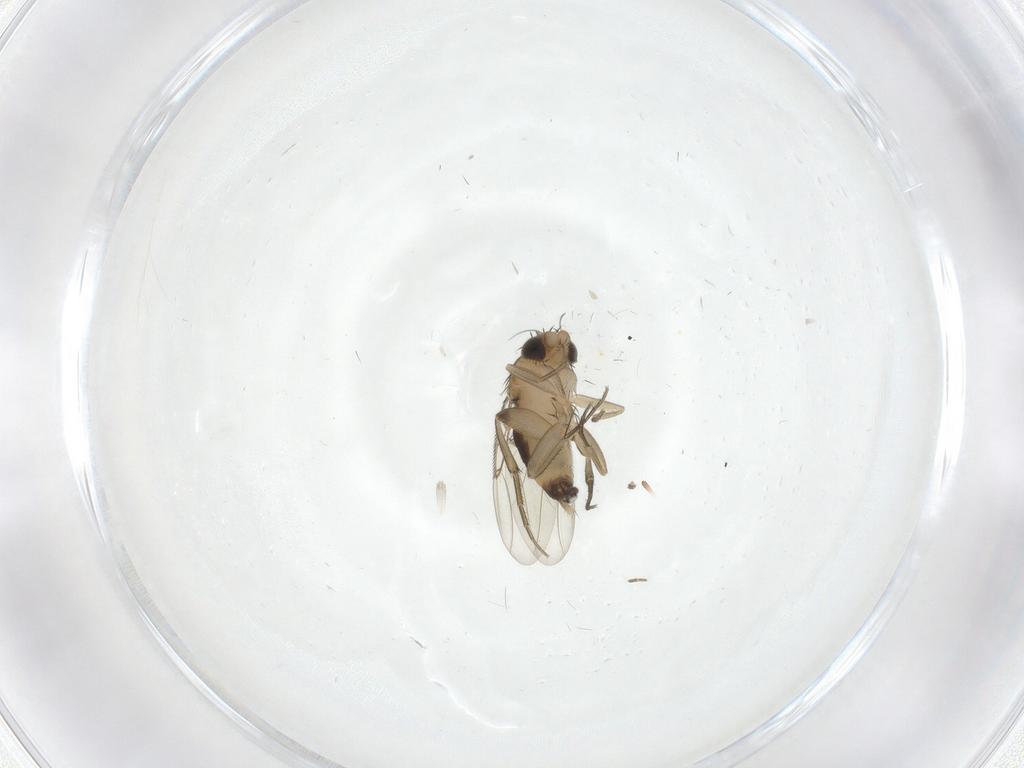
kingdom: Animalia
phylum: Arthropoda
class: Insecta
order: Diptera
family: Phoridae
